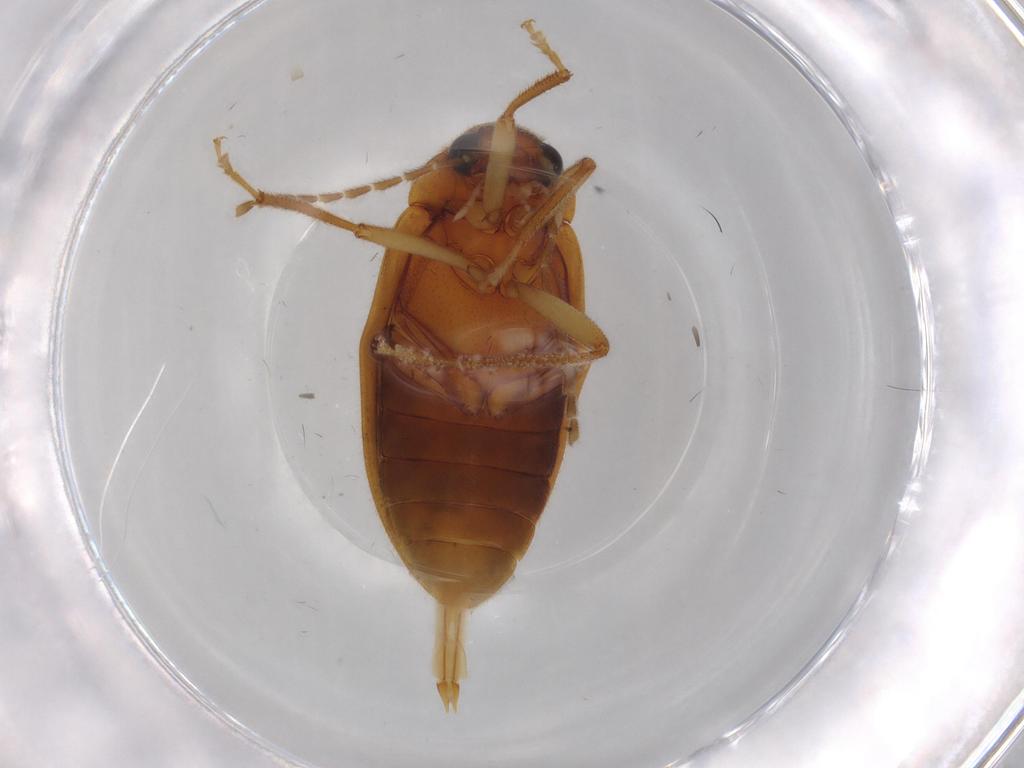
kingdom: Animalia
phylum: Arthropoda
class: Insecta
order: Coleoptera
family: Ptilodactylidae
